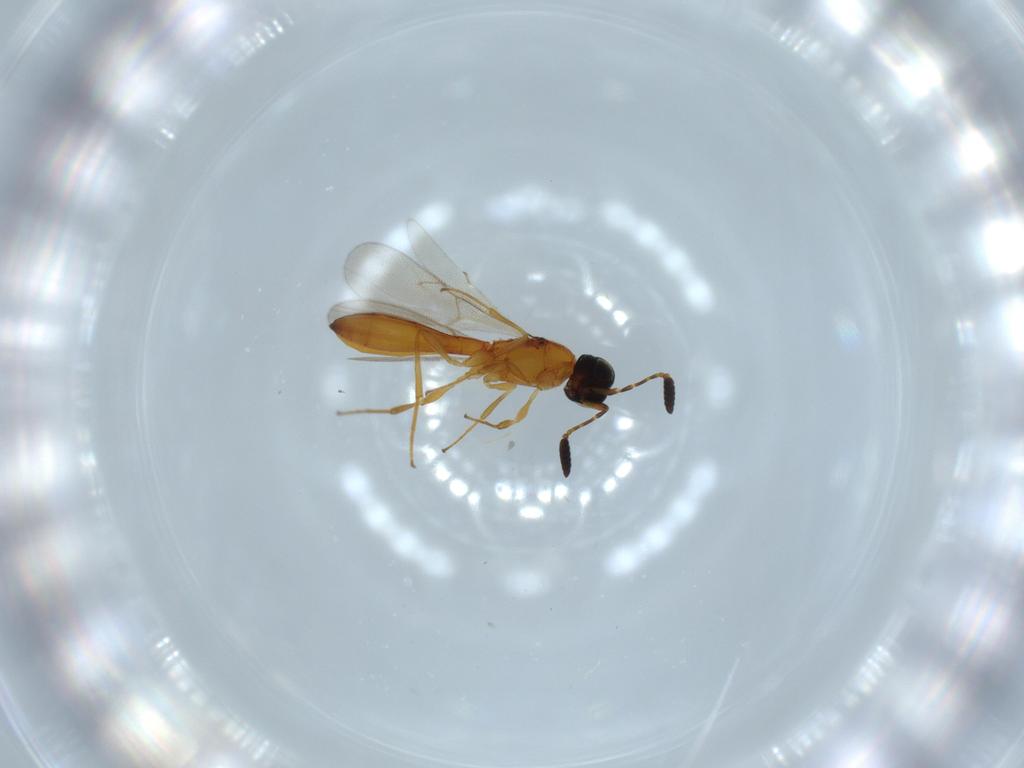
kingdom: Animalia
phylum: Arthropoda
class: Insecta
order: Hymenoptera
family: Scelionidae
